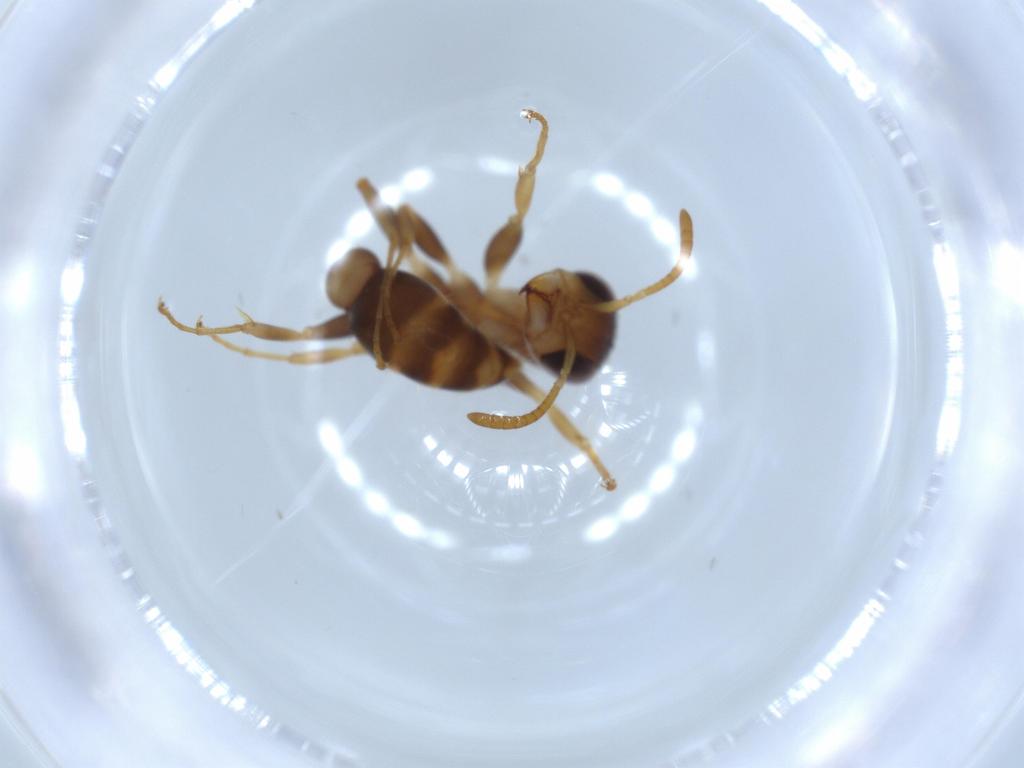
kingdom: Animalia
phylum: Arthropoda
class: Insecta
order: Hymenoptera
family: Formicidae
